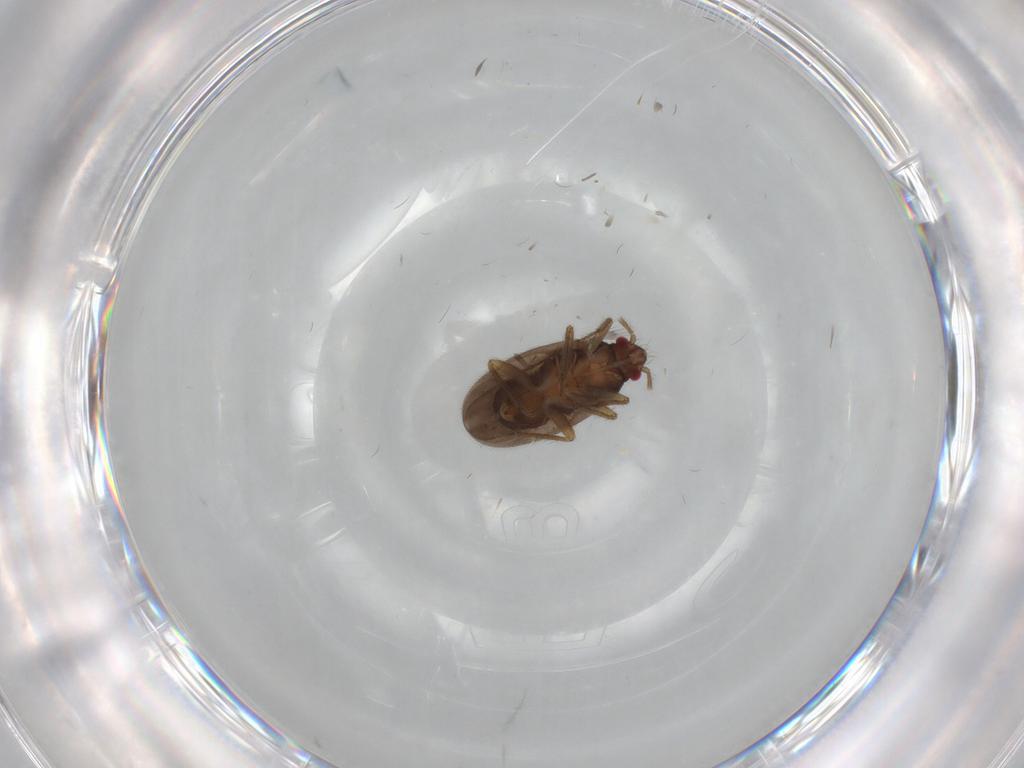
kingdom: Animalia
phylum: Arthropoda
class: Insecta
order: Hemiptera
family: Ceratocombidae
